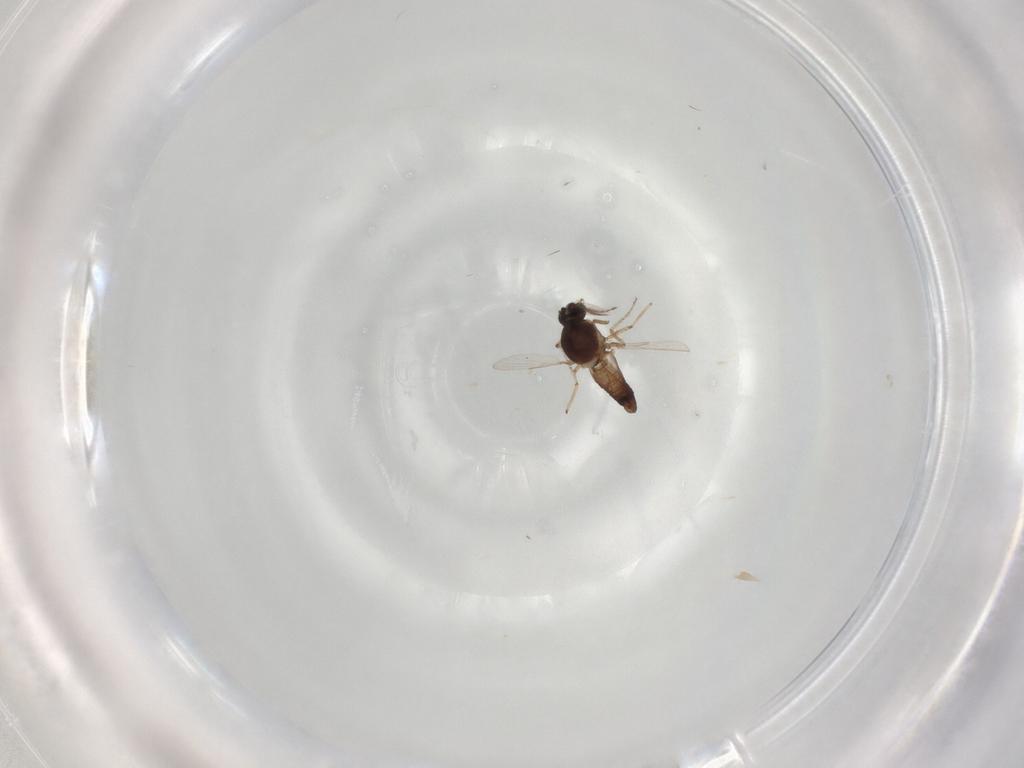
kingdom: Animalia
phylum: Arthropoda
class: Insecta
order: Diptera
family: Ceratopogonidae
